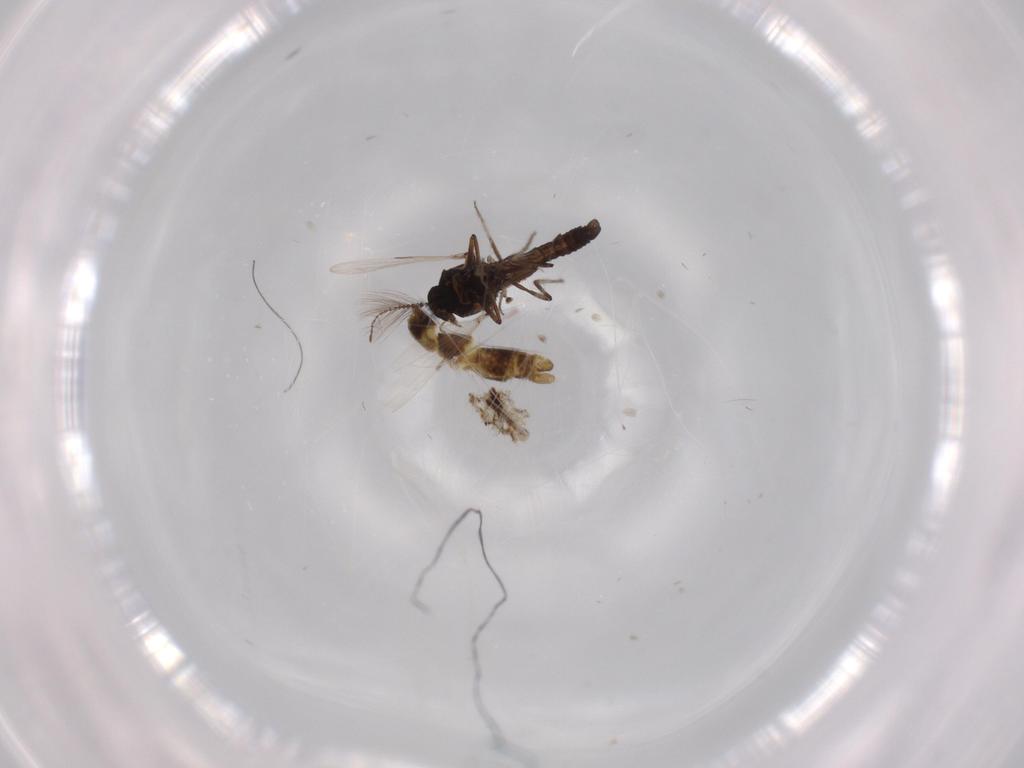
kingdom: Animalia
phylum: Arthropoda
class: Insecta
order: Diptera
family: Ceratopogonidae
